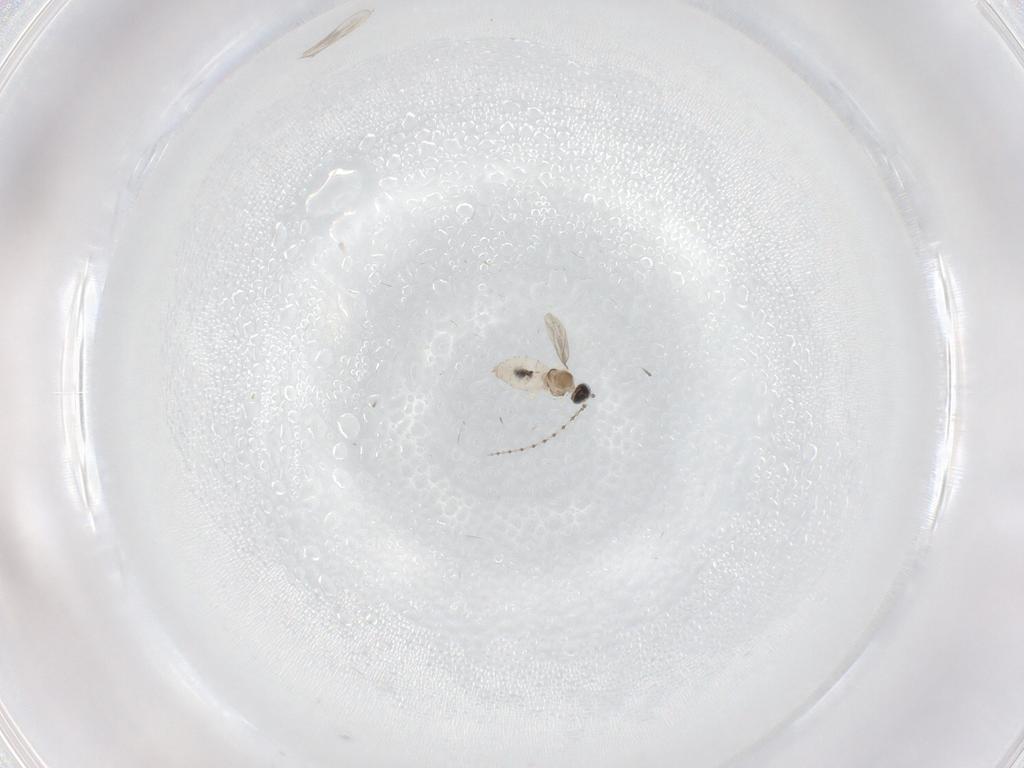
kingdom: Animalia
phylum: Arthropoda
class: Insecta
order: Diptera
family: Cecidomyiidae
